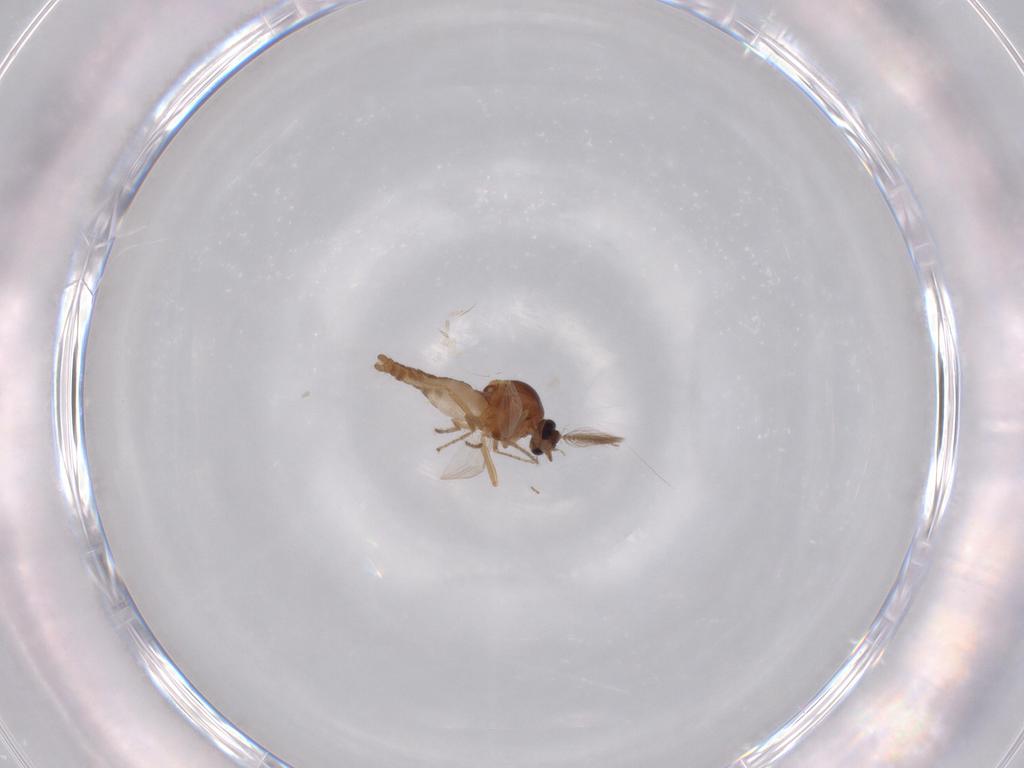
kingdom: Animalia
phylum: Arthropoda
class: Insecta
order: Diptera
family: Ceratopogonidae
